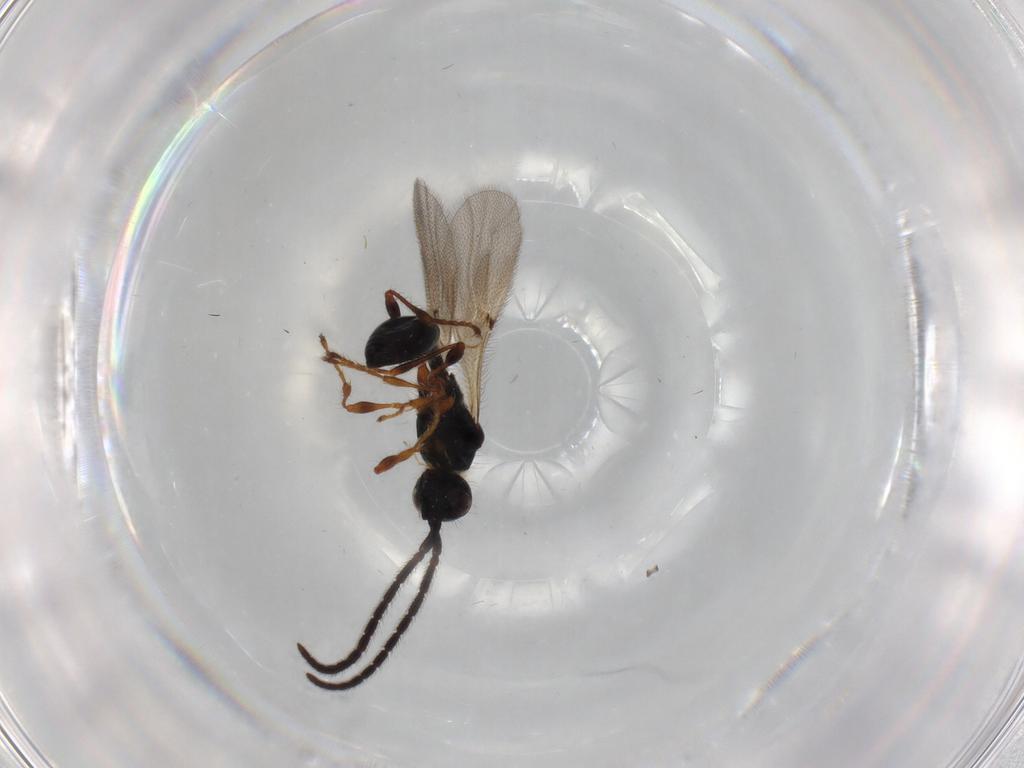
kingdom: Animalia
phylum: Arthropoda
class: Insecta
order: Hymenoptera
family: Diapriidae
